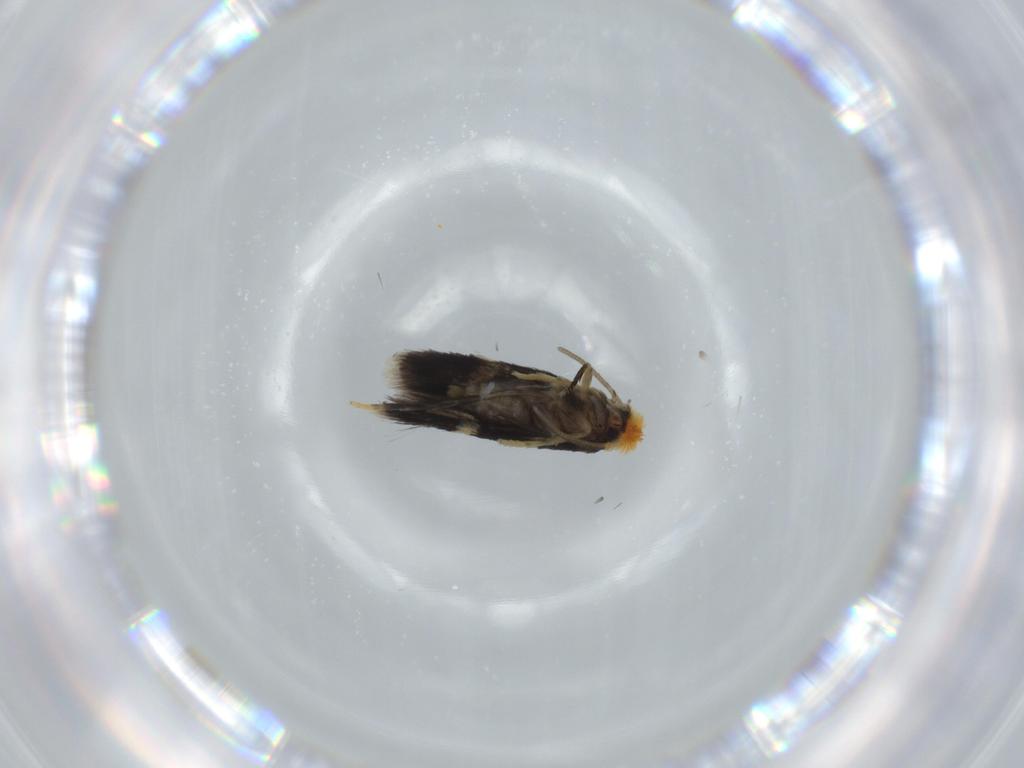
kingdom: Animalia
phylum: Arthropoda
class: Insecta
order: Lepidoptera
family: Nepticulidae
